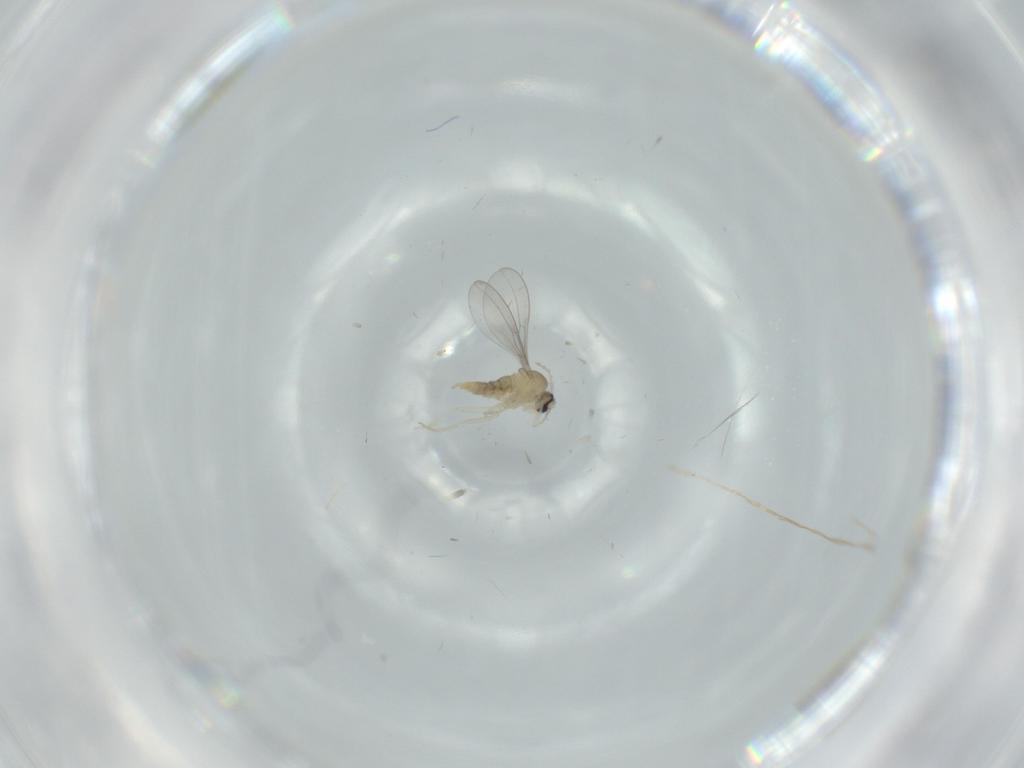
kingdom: Animalia
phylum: Arthropoda
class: Insecta
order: Diptera
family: Cecidomyiidae
